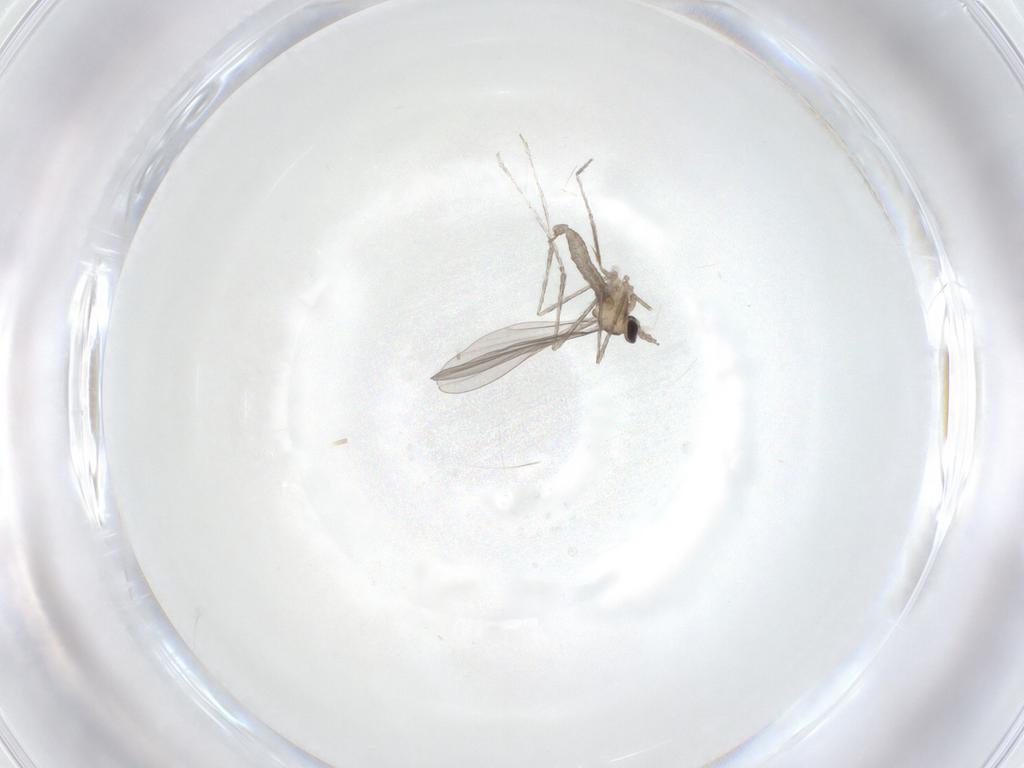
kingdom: Animalia
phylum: Arthropoda
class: Insecta
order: Diptera
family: Cecidomyiidae
